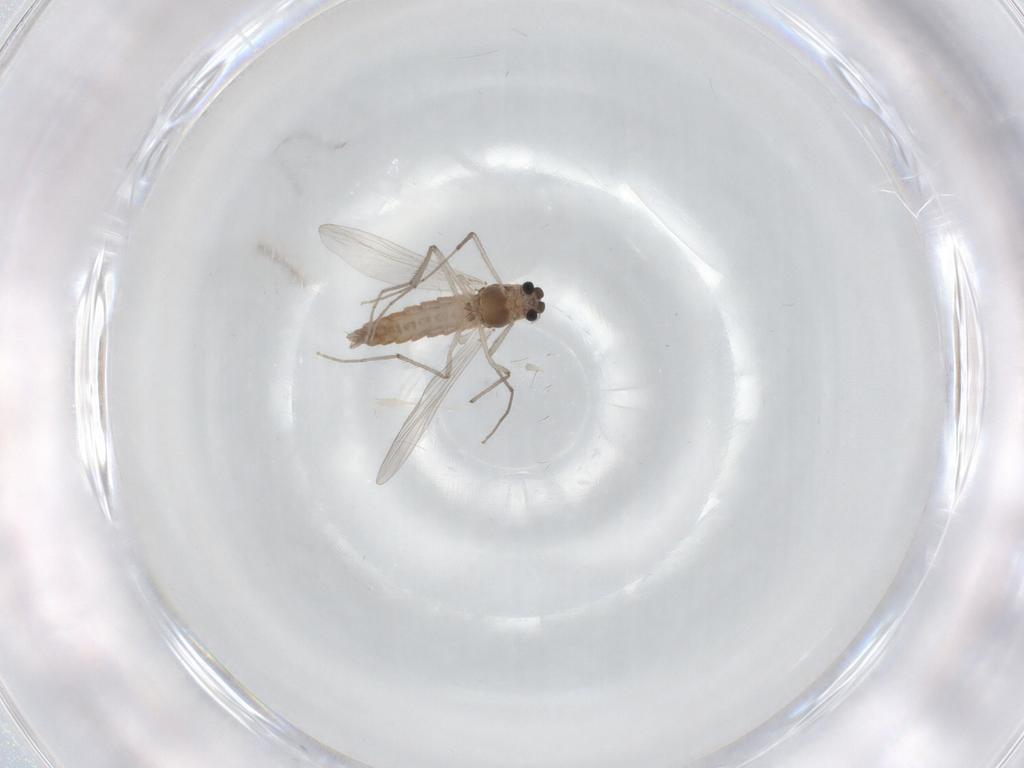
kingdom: Animalia
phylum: Arthropoda
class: Insecta
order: Diptera
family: Chironomidae
